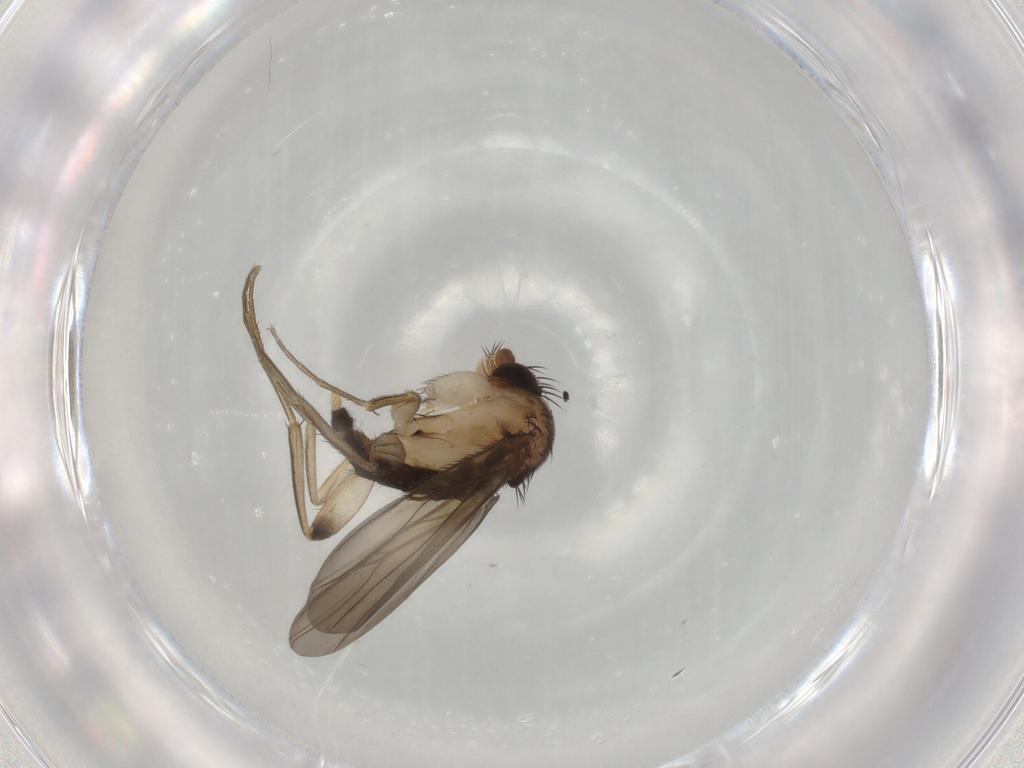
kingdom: Animalia
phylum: Arthropoda
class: Insecta
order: Diptera
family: Phoridae
